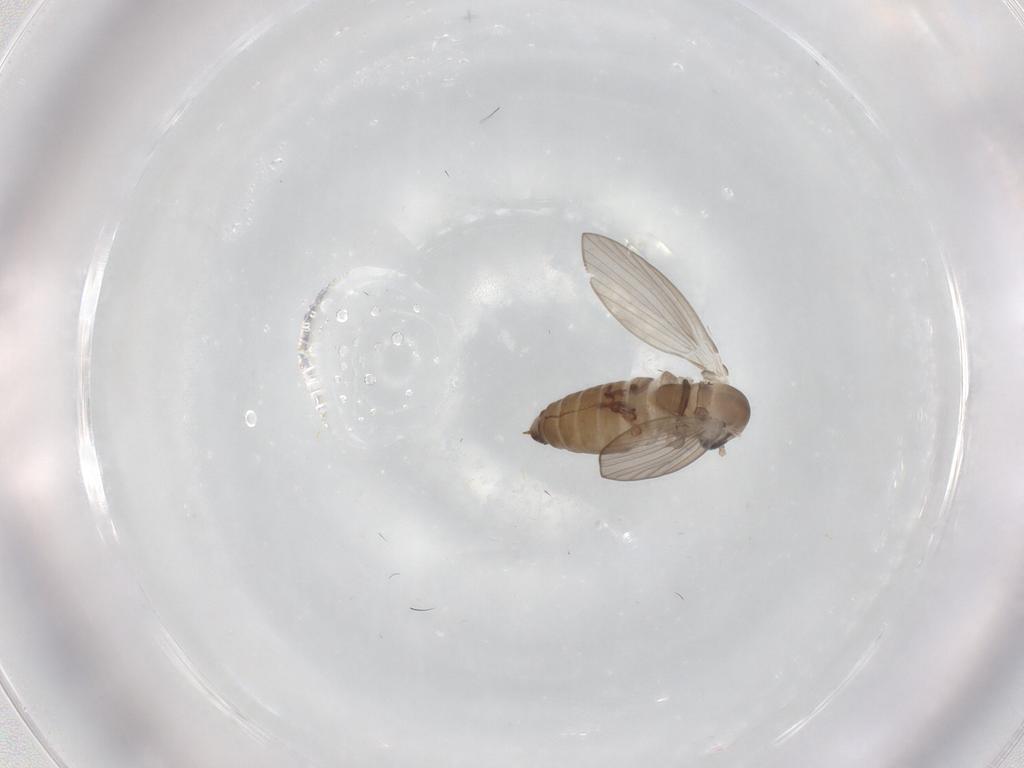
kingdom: Animalia
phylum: Arthropoda
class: Insecta
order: Diptera
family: Psychodidae
